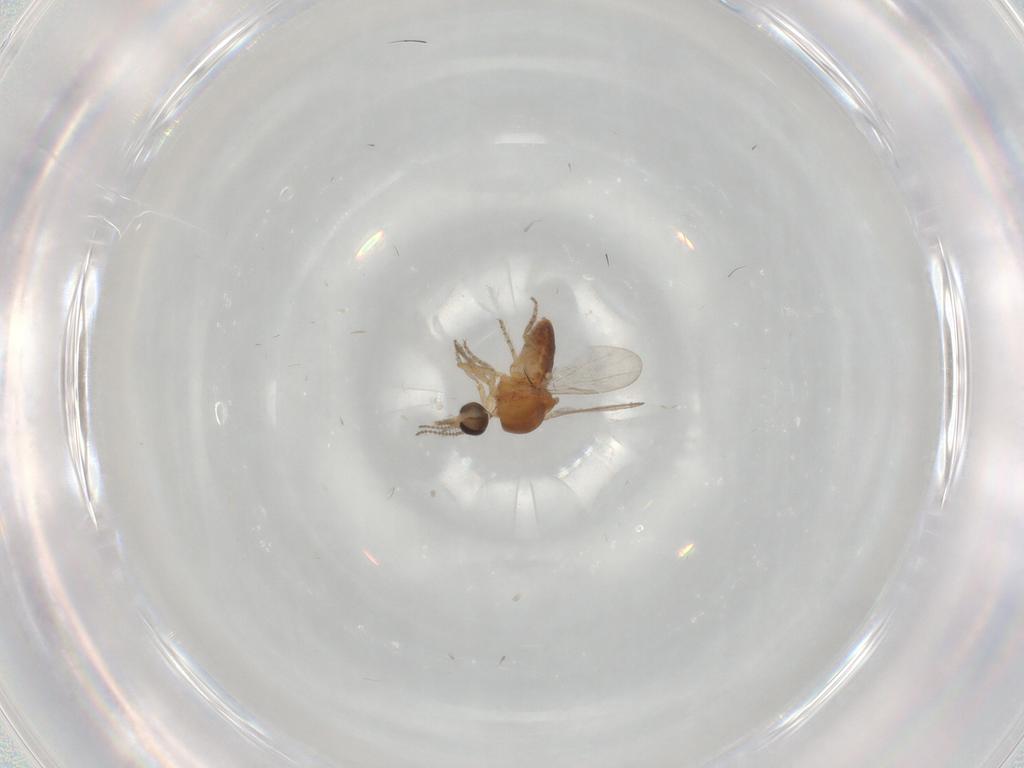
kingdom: Animalia
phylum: Arthropoda
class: Insecta
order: Diptera
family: Ceratopogonidae
